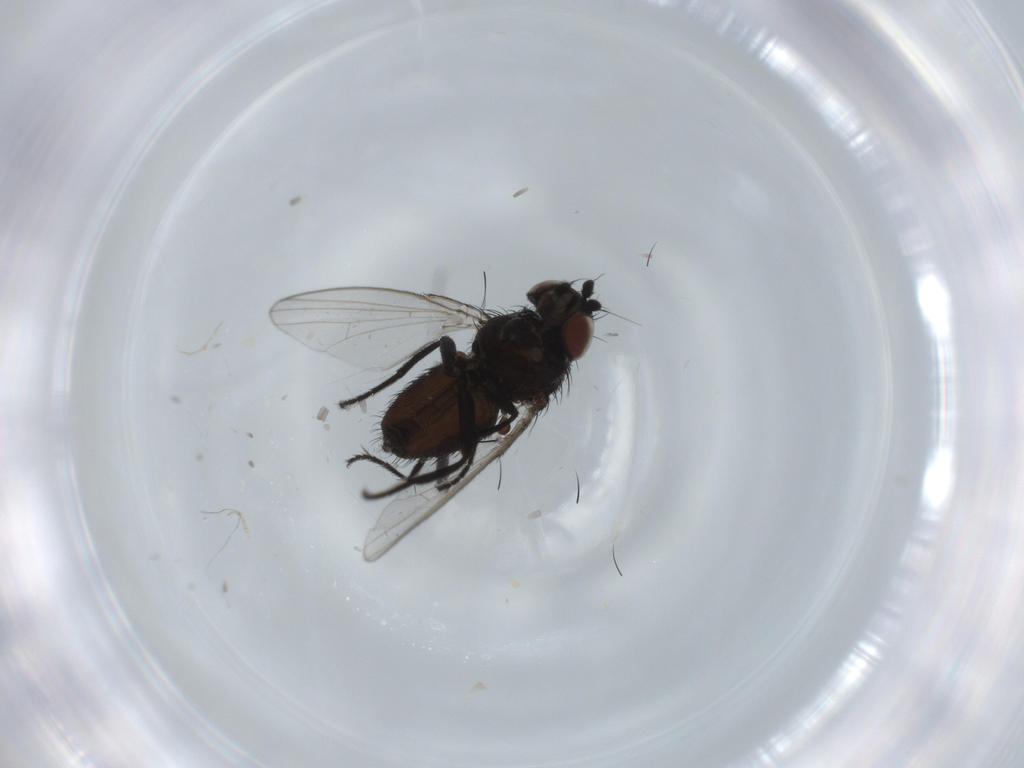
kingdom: Animalia
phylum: Arthropoda
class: Insecta
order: Diptera
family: Milichiidae
